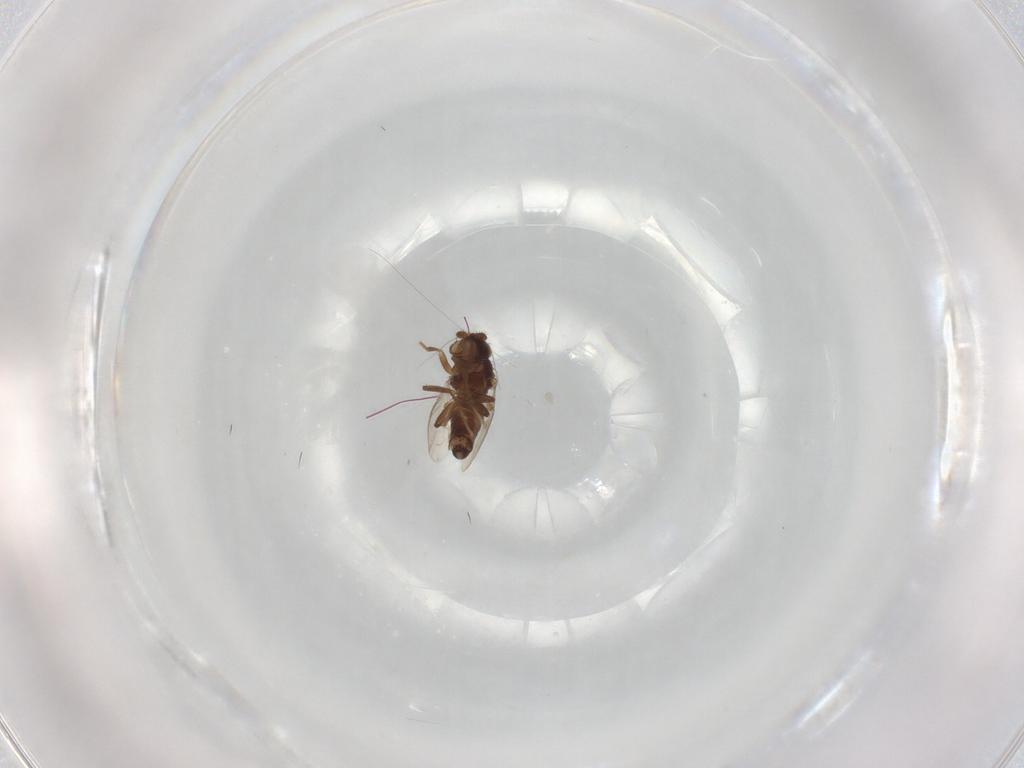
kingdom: Animalia
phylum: Arthropoda
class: Insecta
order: Diptera
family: Sphaeroceridae
